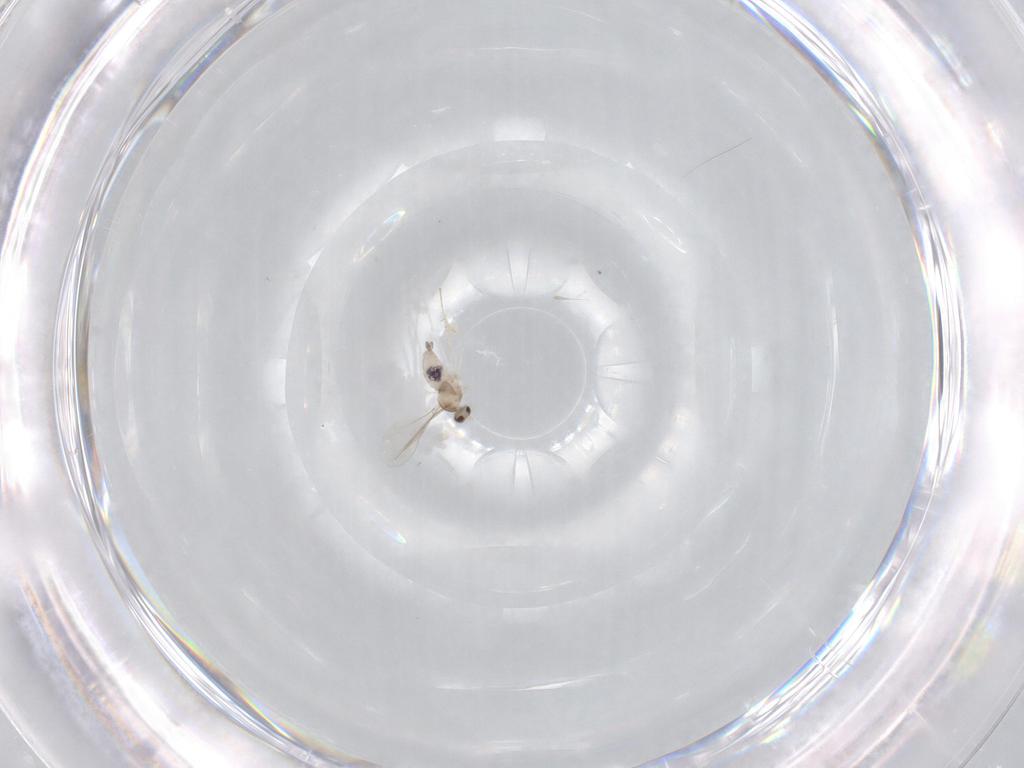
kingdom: Animalia
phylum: Arthropoda
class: Insecta
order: Diptera
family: Cecidomyiidae
